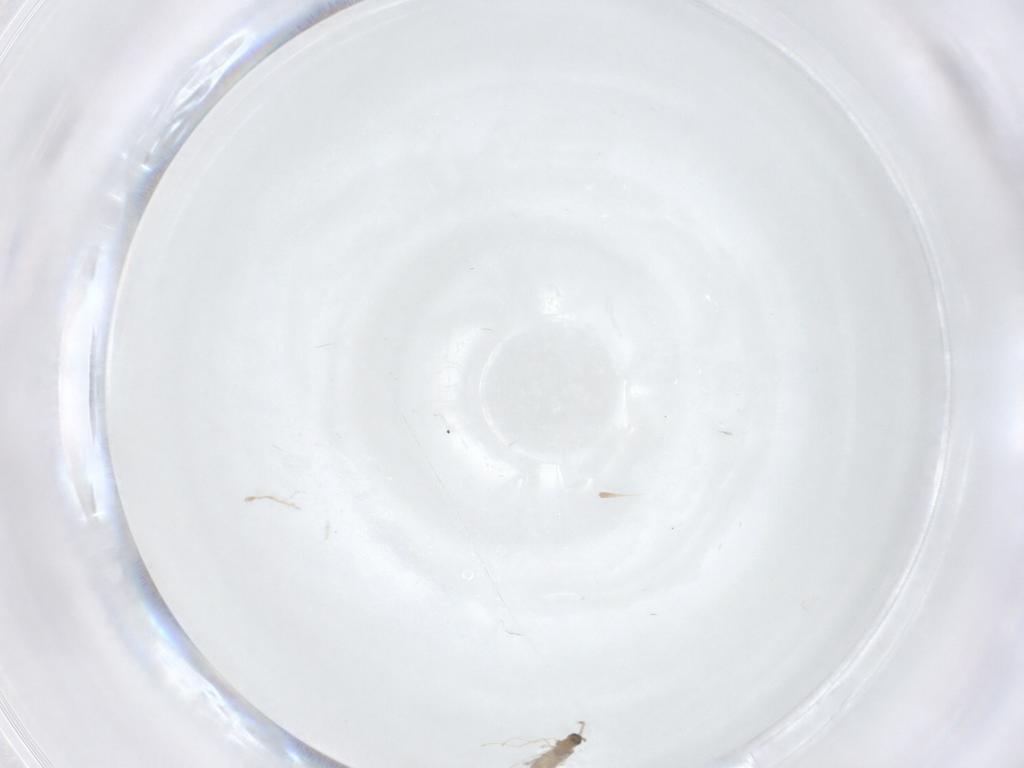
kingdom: Animalia
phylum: Arthropoda
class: Insecta
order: Diptera
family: Cecidomyiidae
